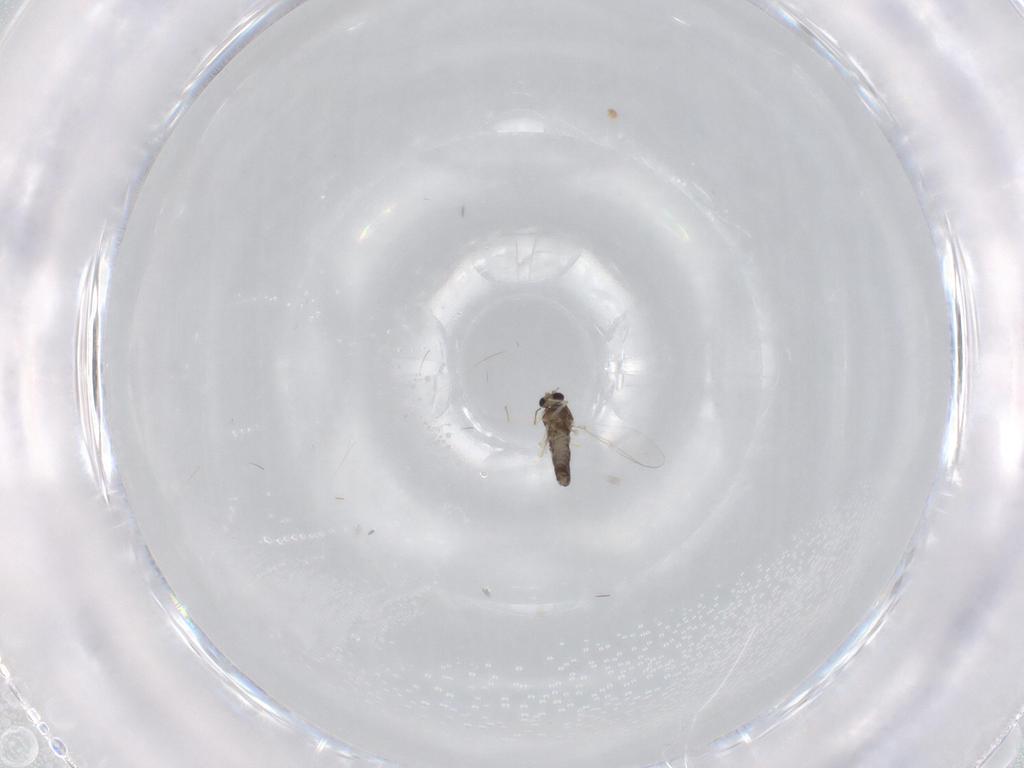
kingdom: Animalia
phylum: Arthropoda
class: Insecta
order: Diptera
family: Chironomidae
